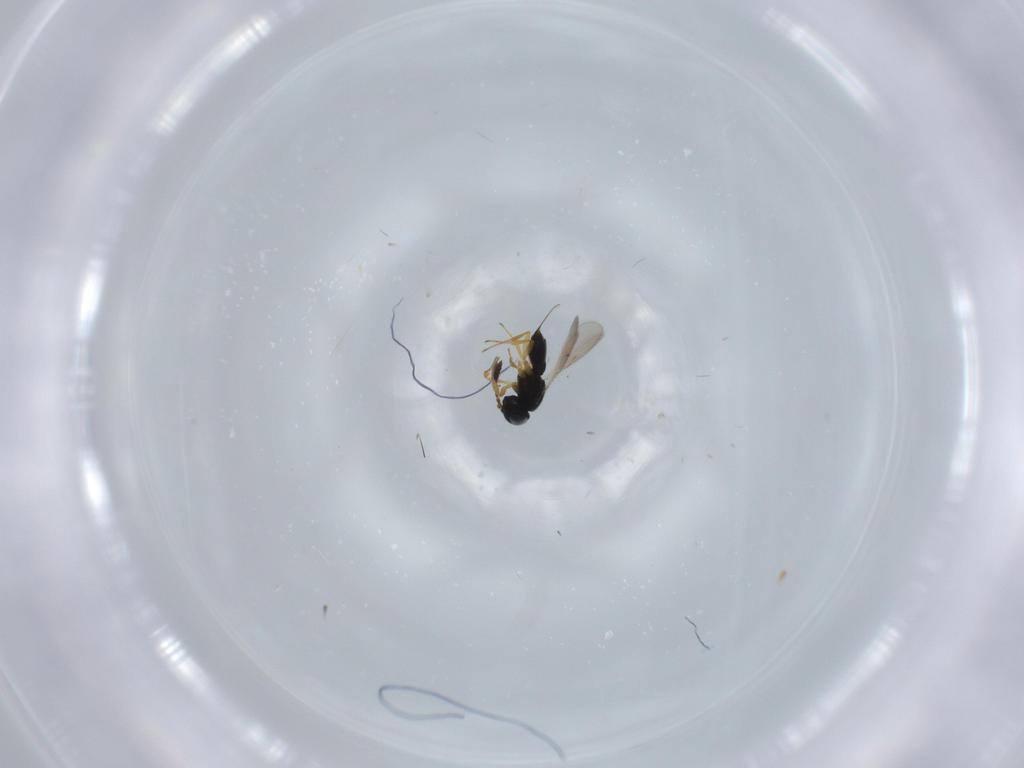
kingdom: Animalia
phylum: Arthropoda
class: Insecta
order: Hymenoptera
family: Scelionidae
